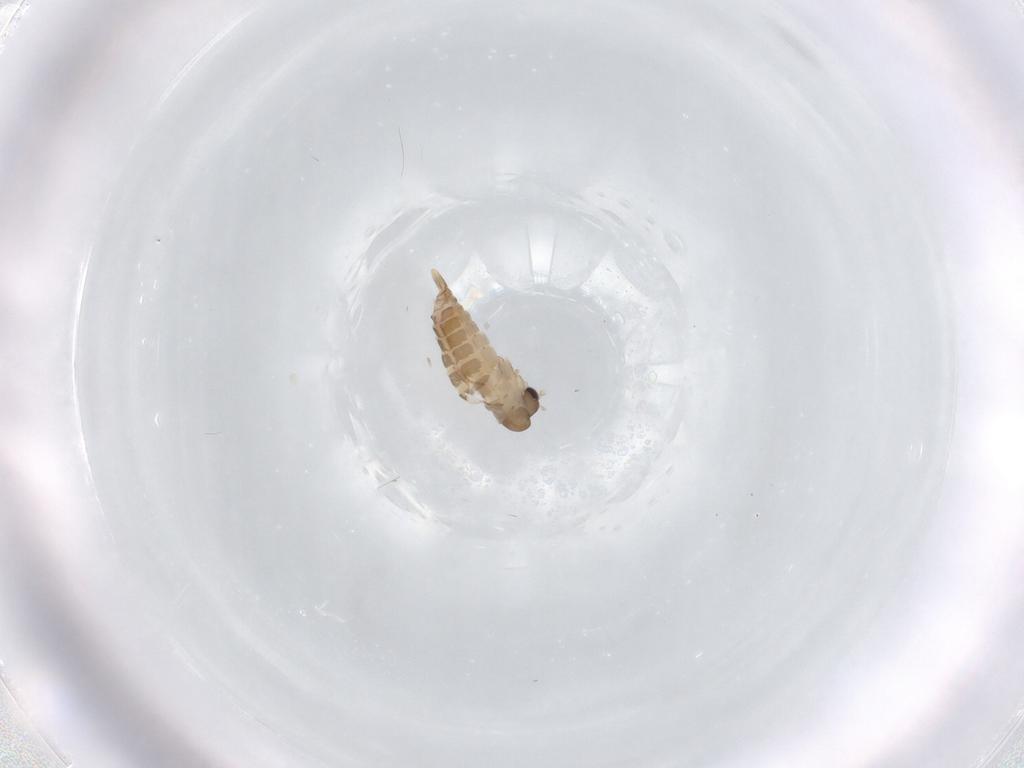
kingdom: Animalia
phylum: Arthropoda
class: Insecta
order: Diptera
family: Psychodidae
